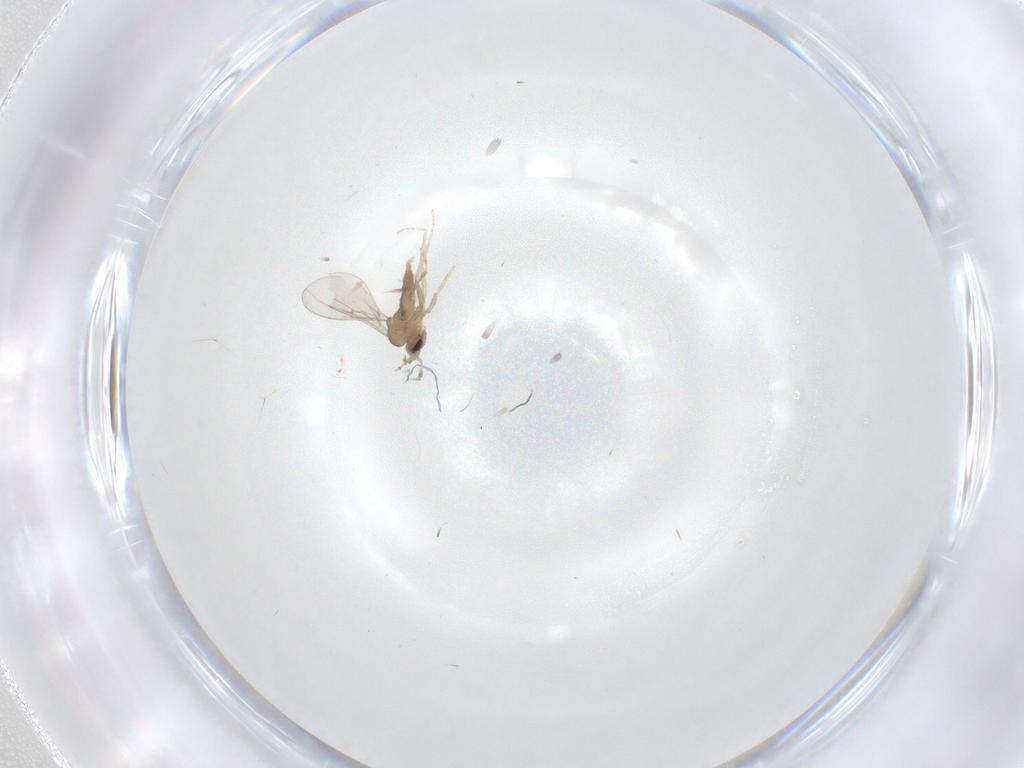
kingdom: Animalia
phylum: Arthropoda
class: Insecta
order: Diptera
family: Cecidomyiidae
